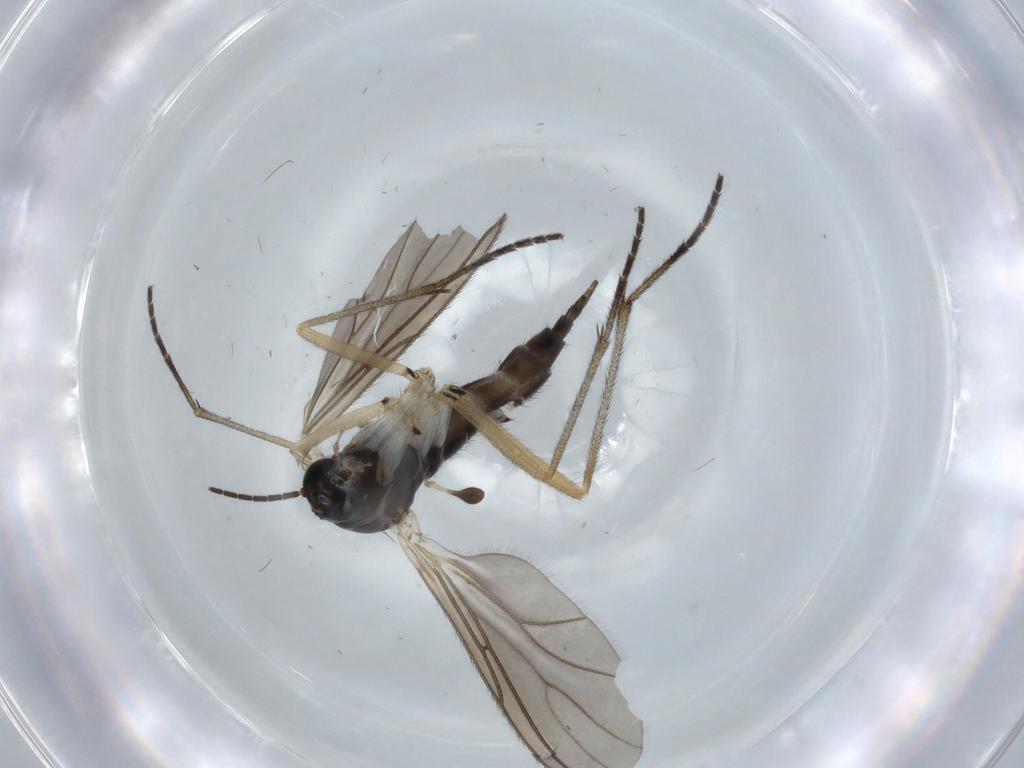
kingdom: Animalia
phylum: Arthropoda
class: Insecta
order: Diptera
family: Sciaridae
